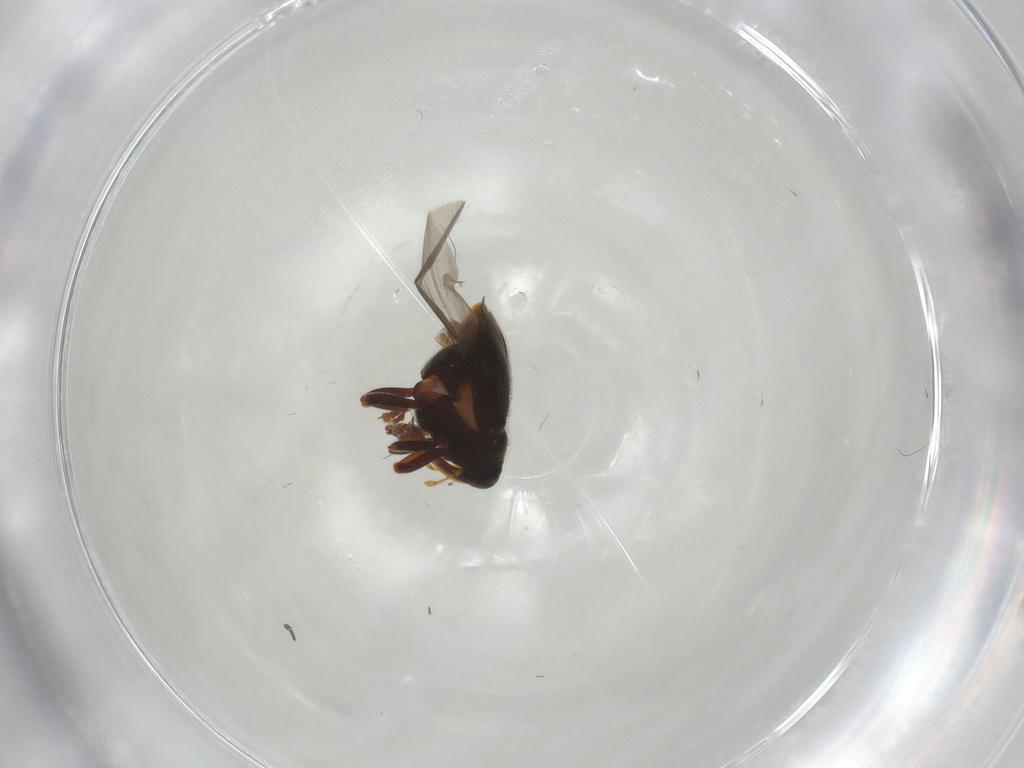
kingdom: Animalia
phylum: Arthropoda
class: Insecta
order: Coleoptera
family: Curculionidae
